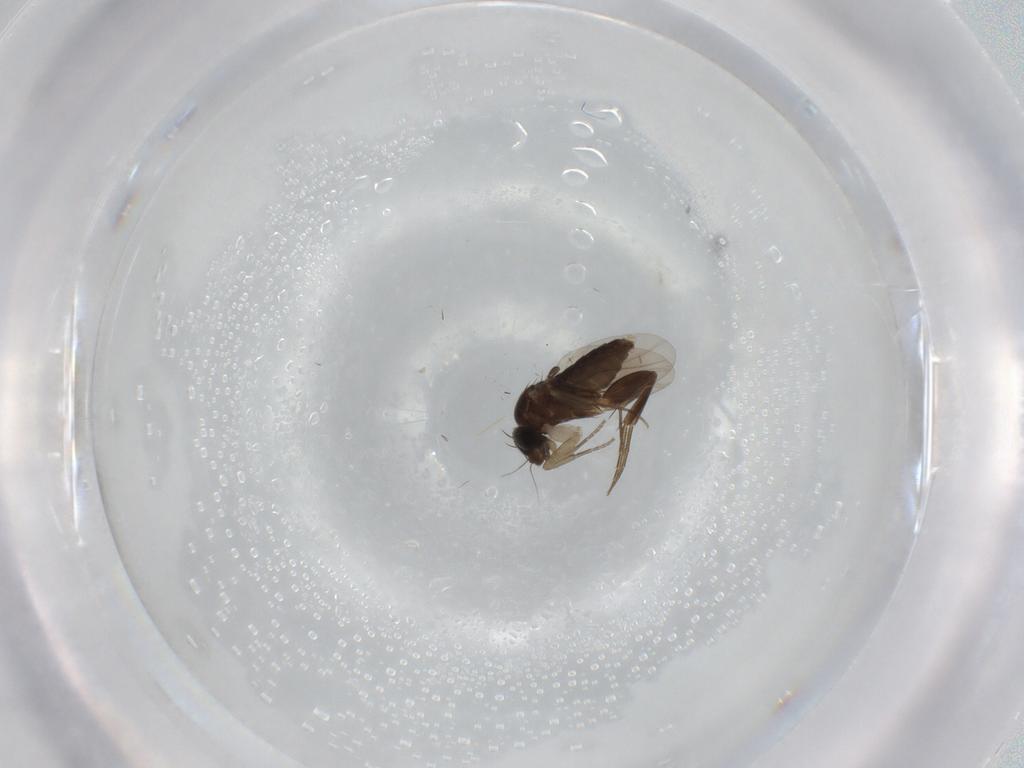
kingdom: Animalia
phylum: Arthropoda
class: Insecta
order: Diptera
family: Phoridae
